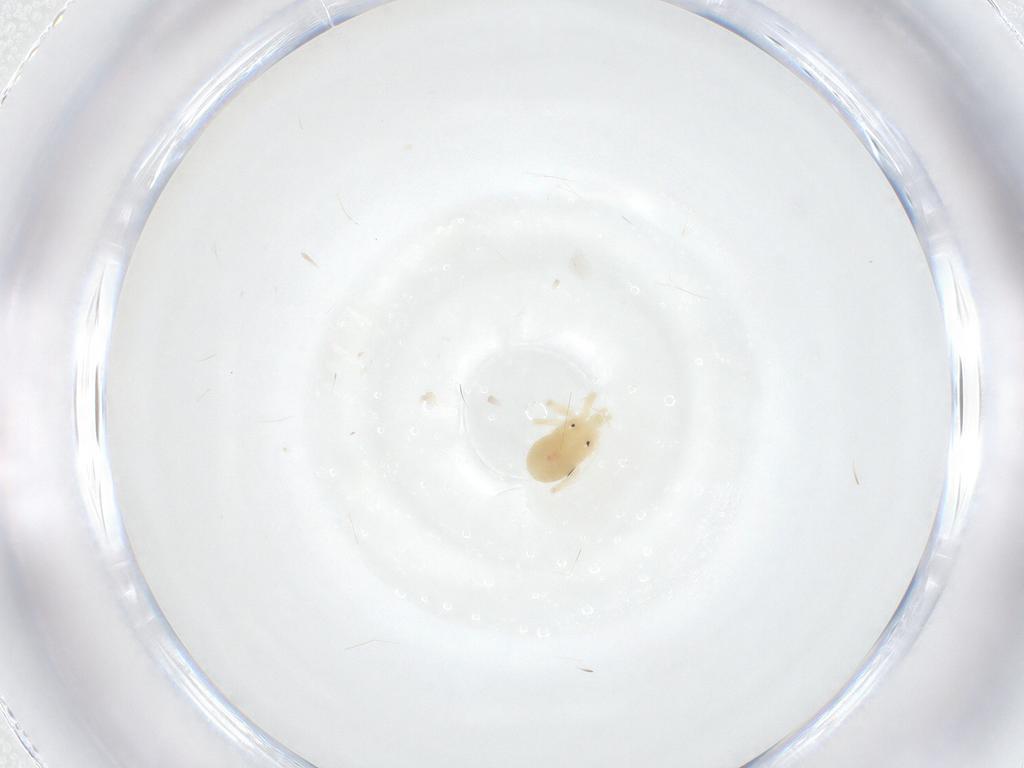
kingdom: Animalia
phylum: Arthropoda
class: Arachnida
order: Trombidiformes
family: Anystidae
